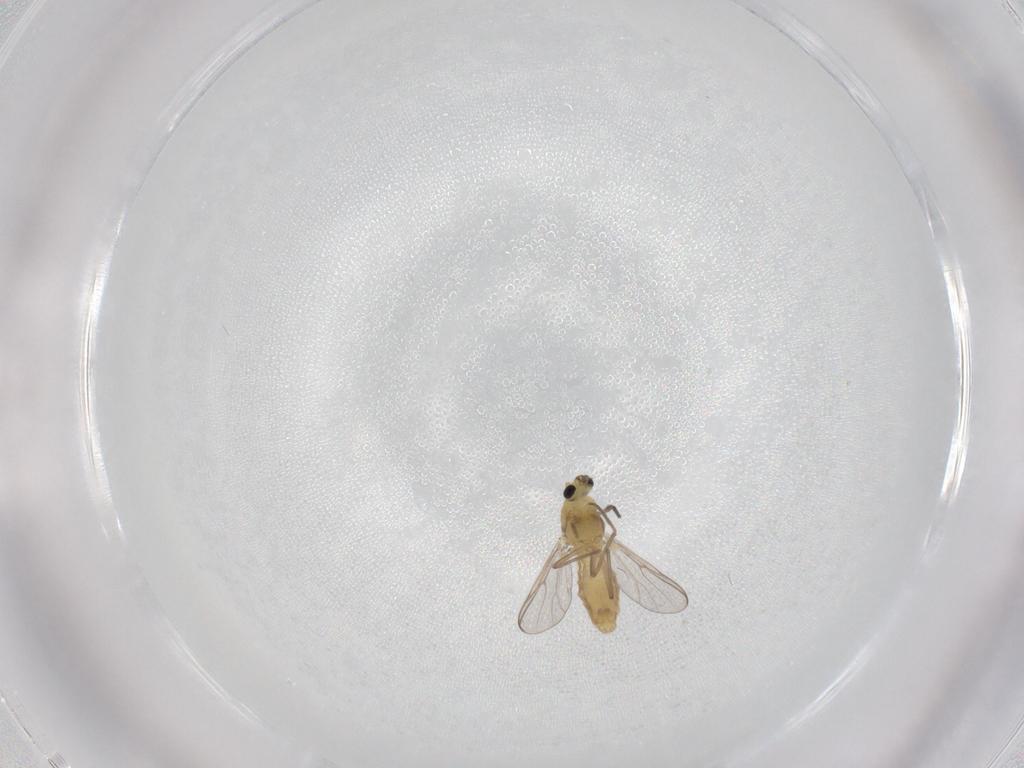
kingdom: Animalia
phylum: Arthropoda
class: Insecta
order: Diptera
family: Chironomidae
